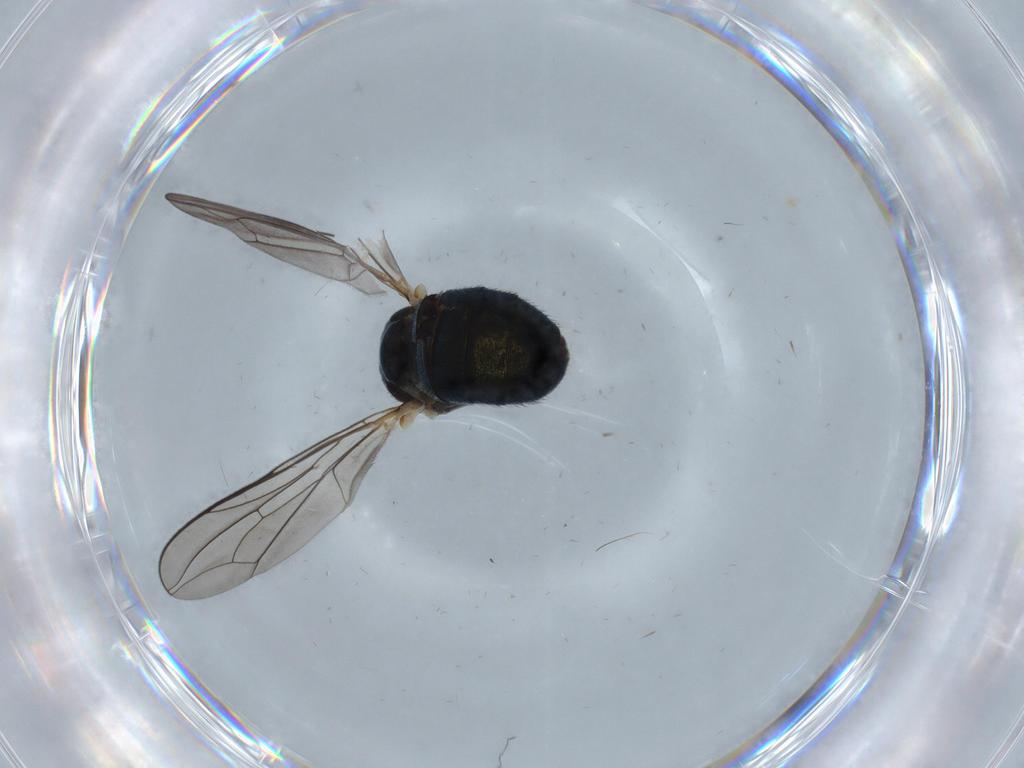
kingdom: Animalia
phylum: Arthropoda
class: Insecta
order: Diptera
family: Pipunculidae
